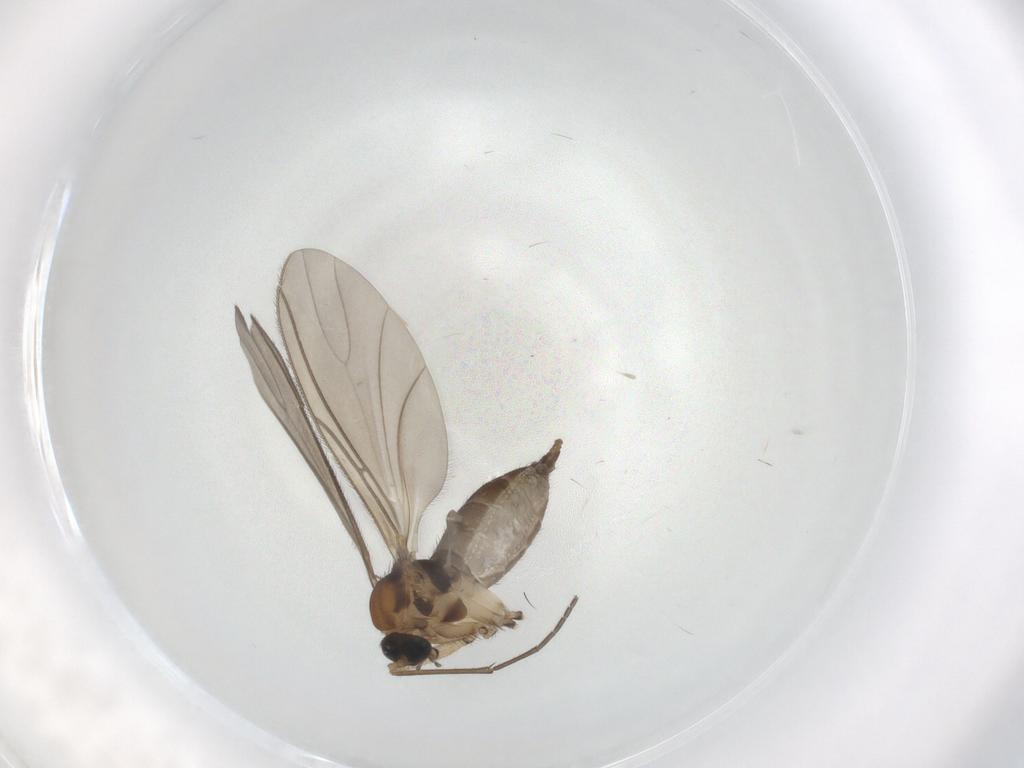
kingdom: Animalia
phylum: Arthropoda
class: Insecta
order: Diptera
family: Sciaridae
